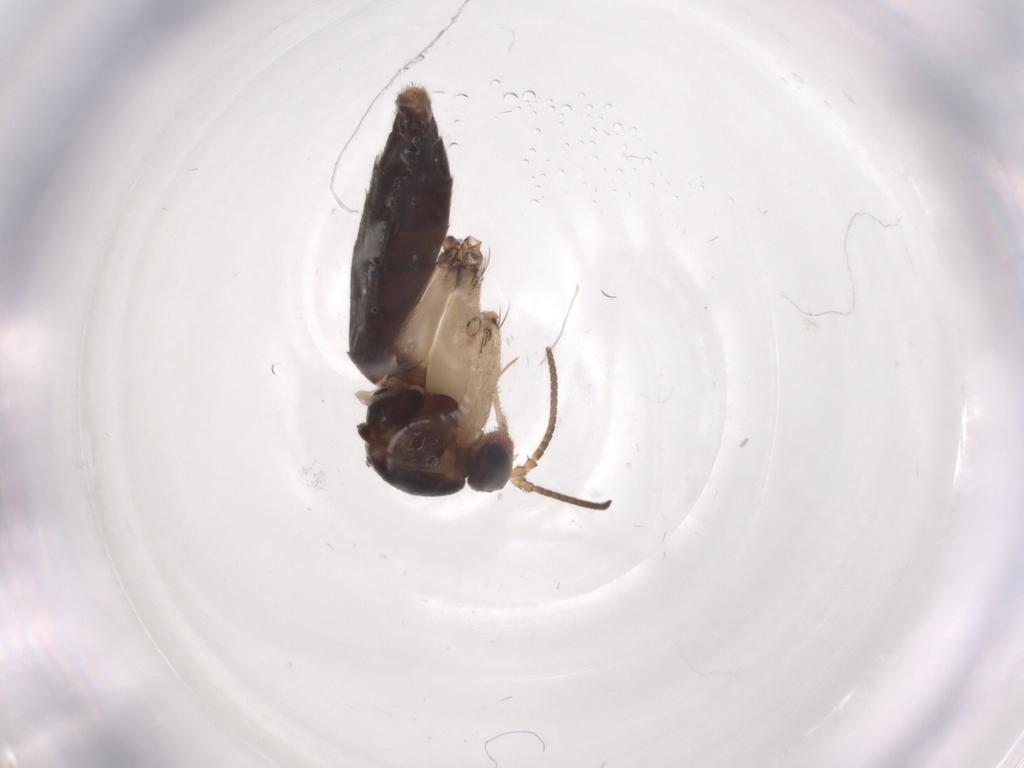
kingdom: Animalia
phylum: Arthropoda
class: Insecta
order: Diptera
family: Mycetophilidae
